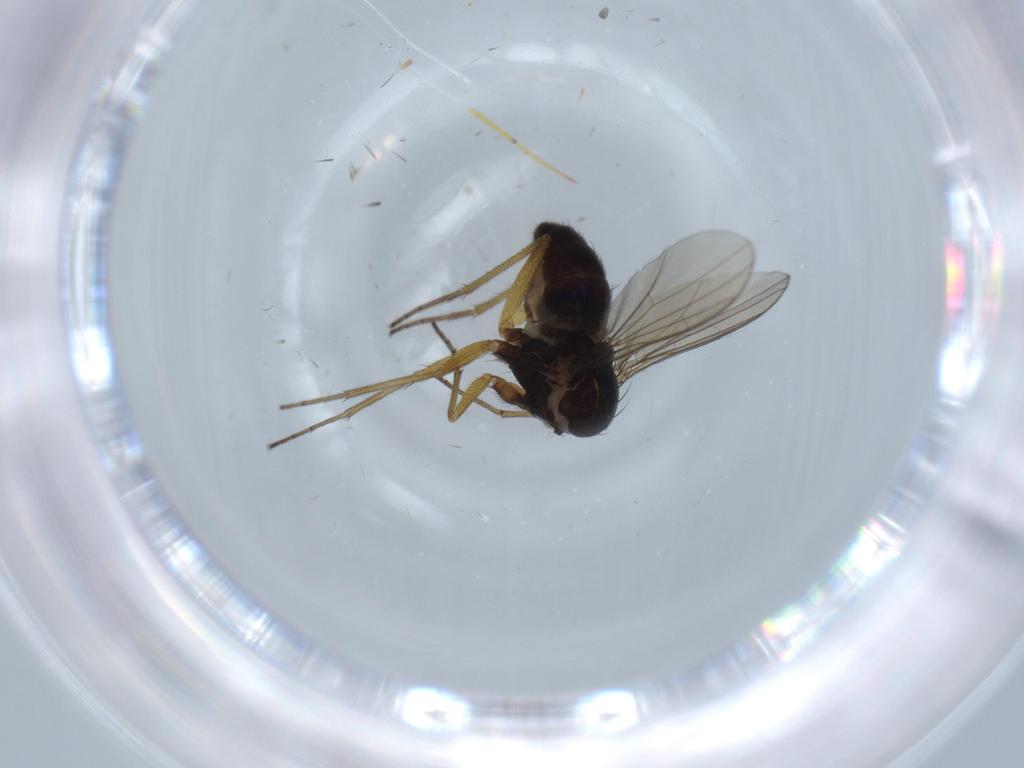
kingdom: Animalia
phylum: Arthropoda
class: Insecta
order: Diptera
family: Dolichopodidae
